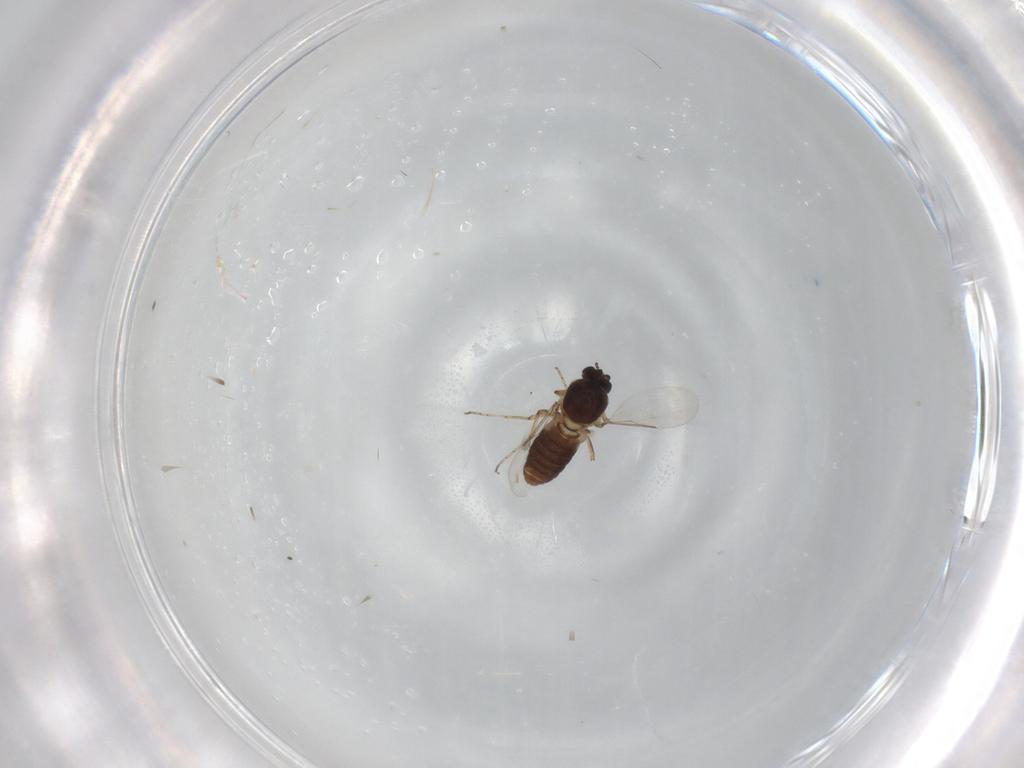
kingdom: Animalia
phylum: Arthropoda
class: Insecta
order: Diptera
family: Cecidomyiidae
